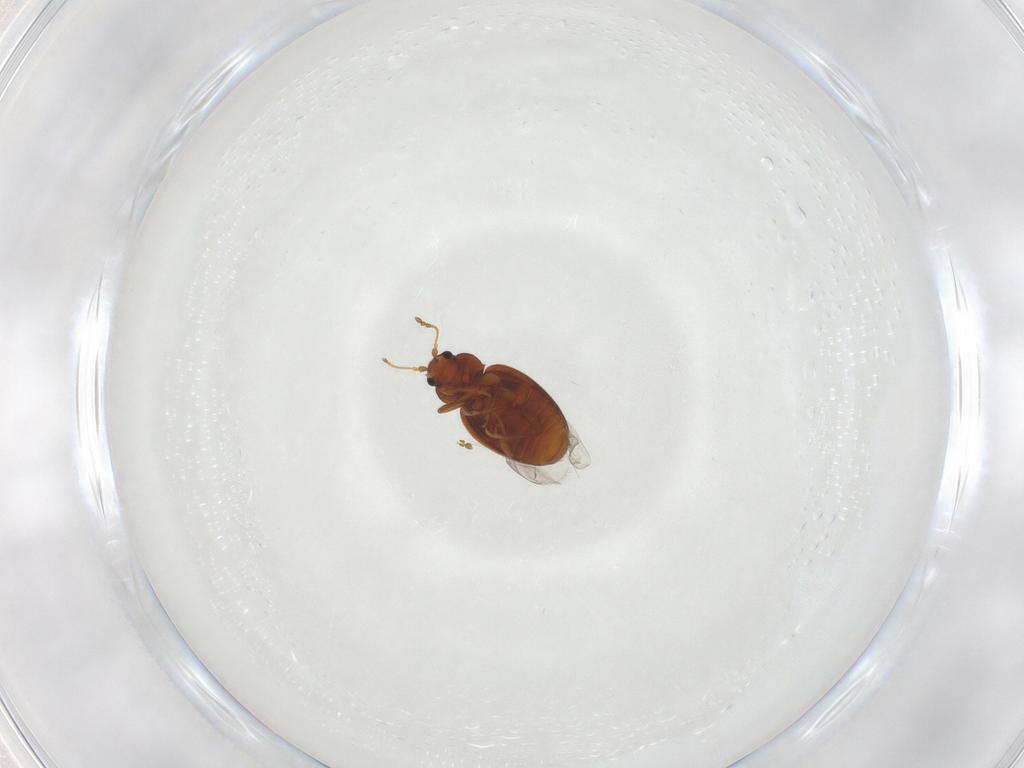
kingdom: Animalia
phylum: Arthropoda
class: Insecta
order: Coleoptera
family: Latridiidae
